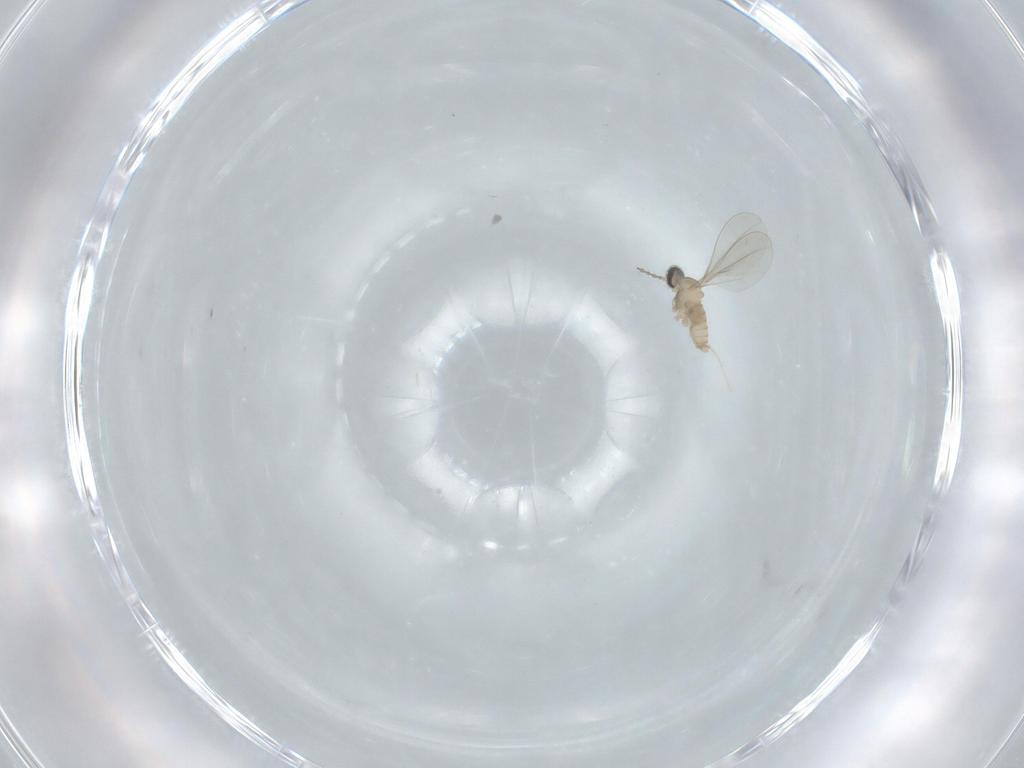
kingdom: Animalia
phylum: Arthropoda
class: Insecta
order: Diptera
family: Cecidomyiidae
